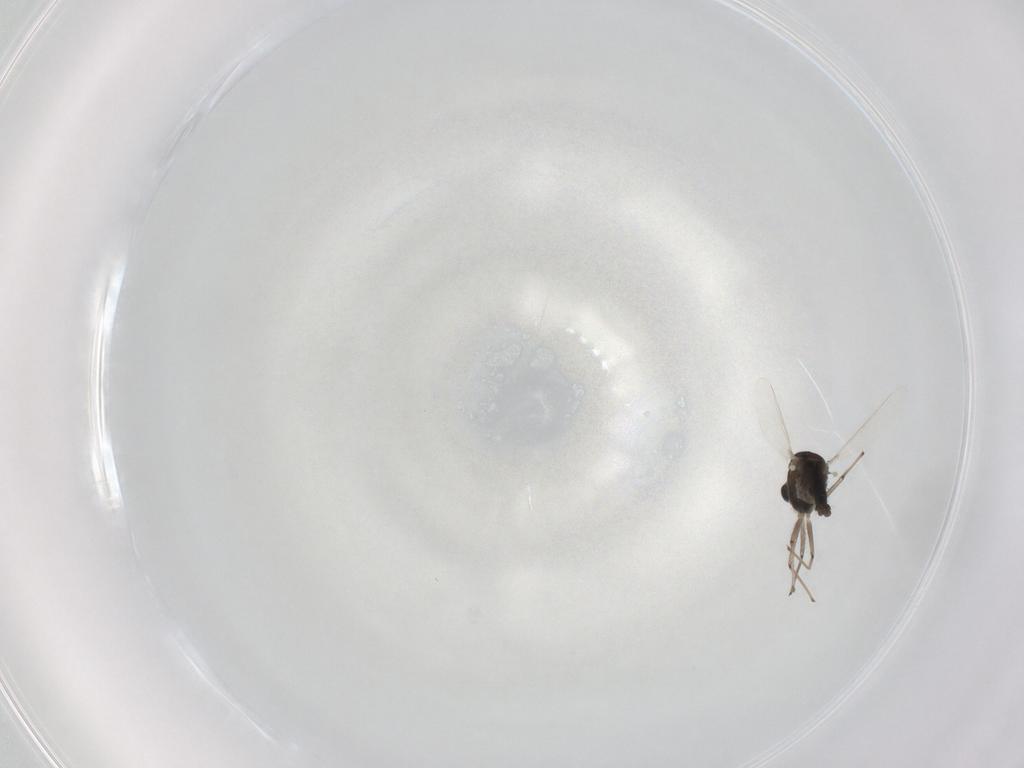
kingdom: Animalia
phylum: Arthropoda
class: Insecta
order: Diptera
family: Chironomidae
